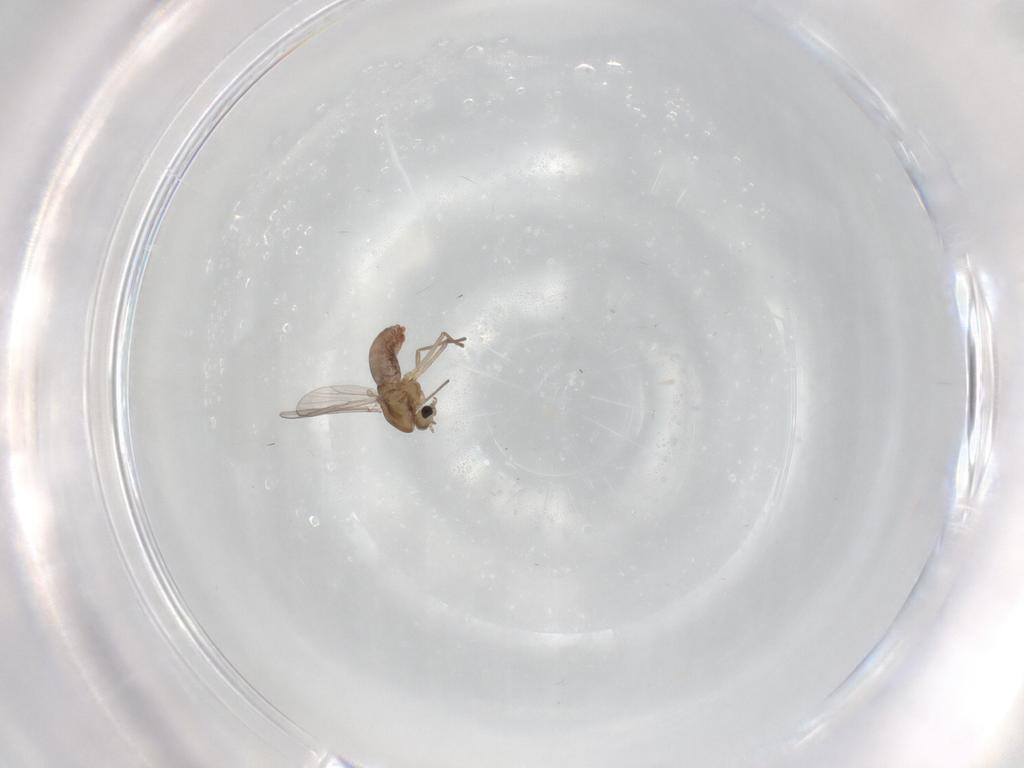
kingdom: Animalia
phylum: Arthropoda
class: Insecta
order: Diptera
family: Chironomidae
